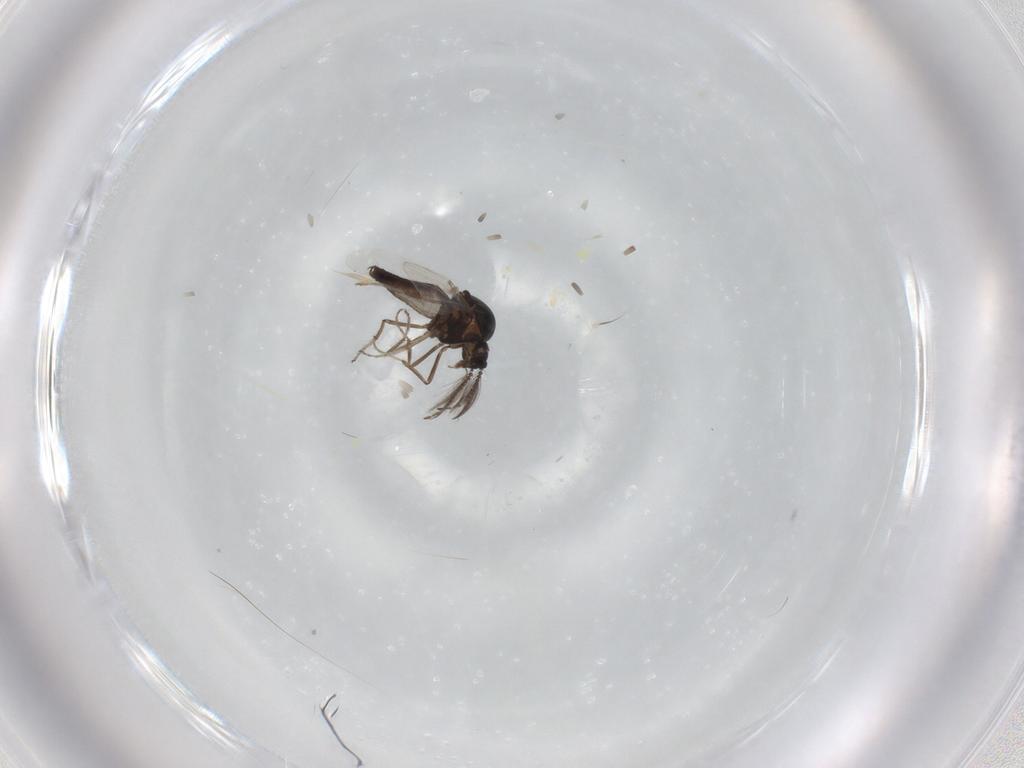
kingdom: Animalia
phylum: Arthropoda
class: Insecta
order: Diptera
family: Ceratopogonidae
